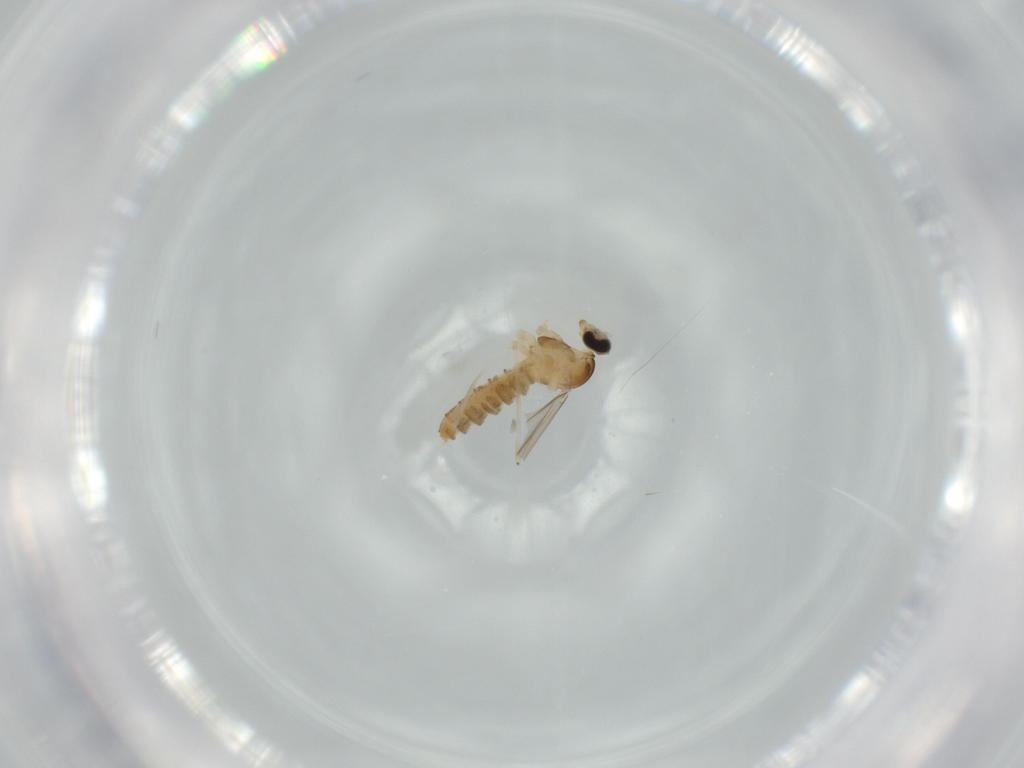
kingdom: Animalia
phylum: Arthropoda
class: Insecta
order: Diptera
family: Cecidomyiidae
